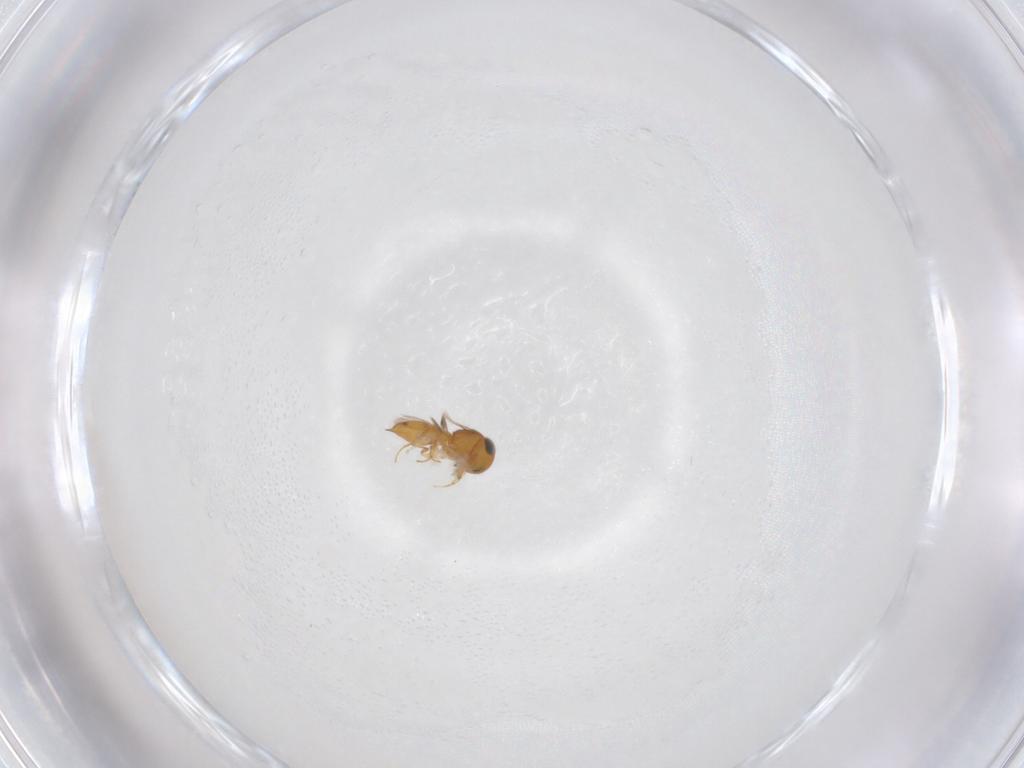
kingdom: Animalia
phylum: Arthropoda
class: Insecta
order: Hymenoptera
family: Scelionidae
